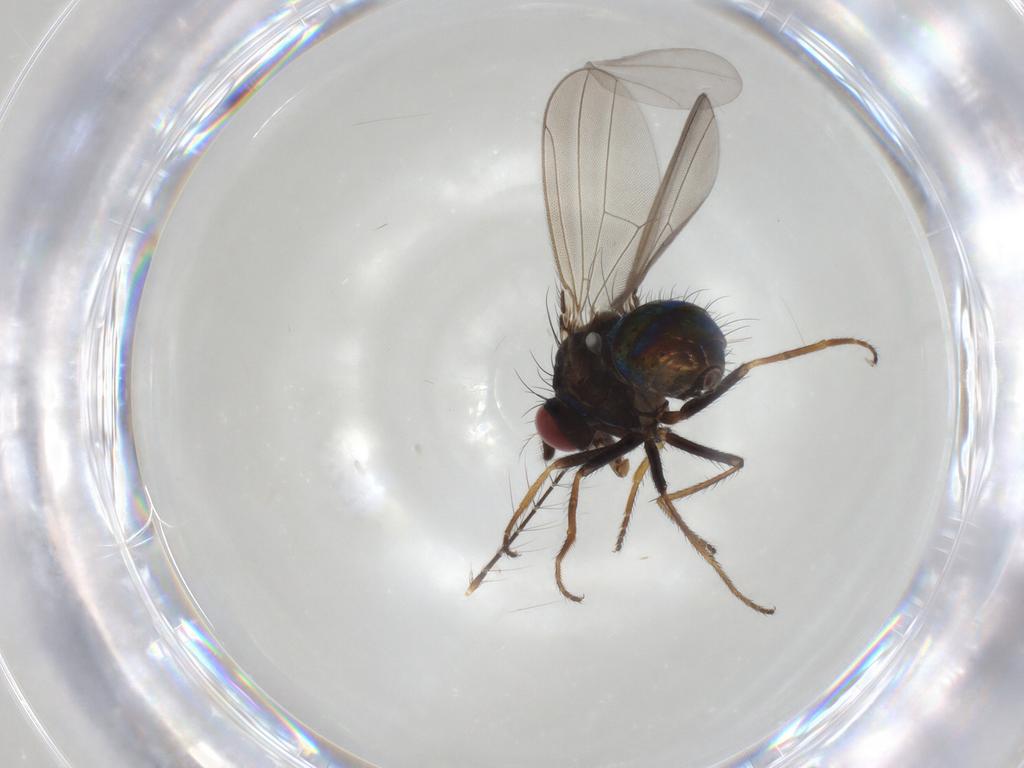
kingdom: Animalia
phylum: Arthropoda
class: Insecta
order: Diptera
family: Ephydridae
